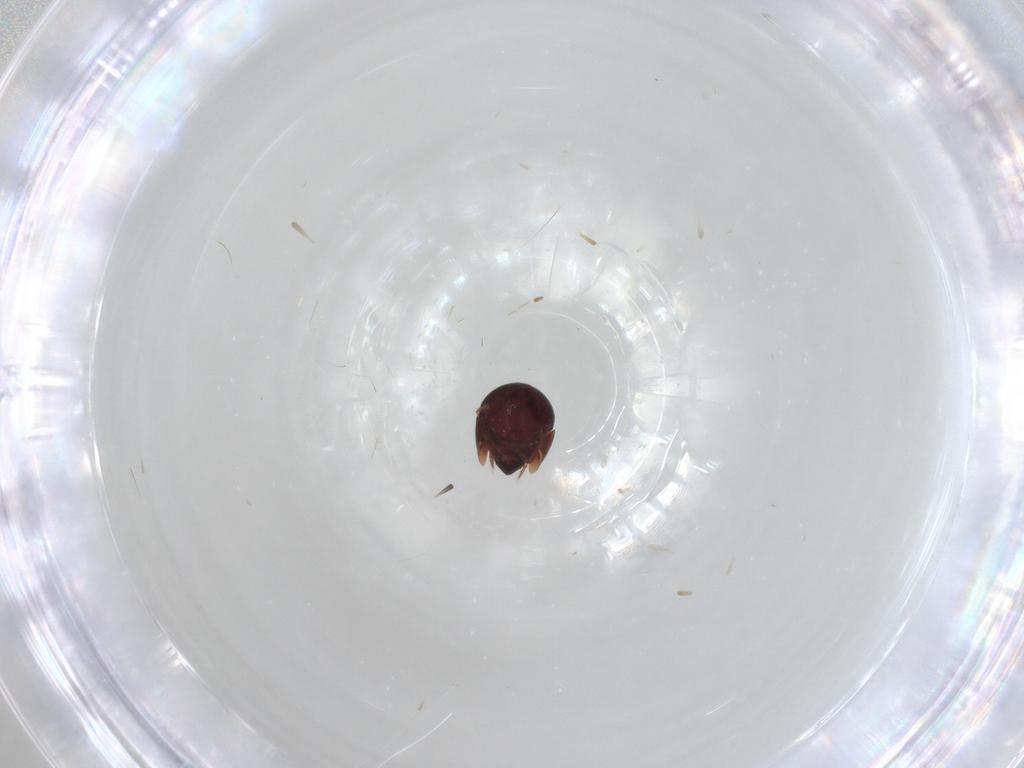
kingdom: Animalia
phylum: Arthropoda
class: Arachnida
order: Sarcoptiformes
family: Galumnidae
